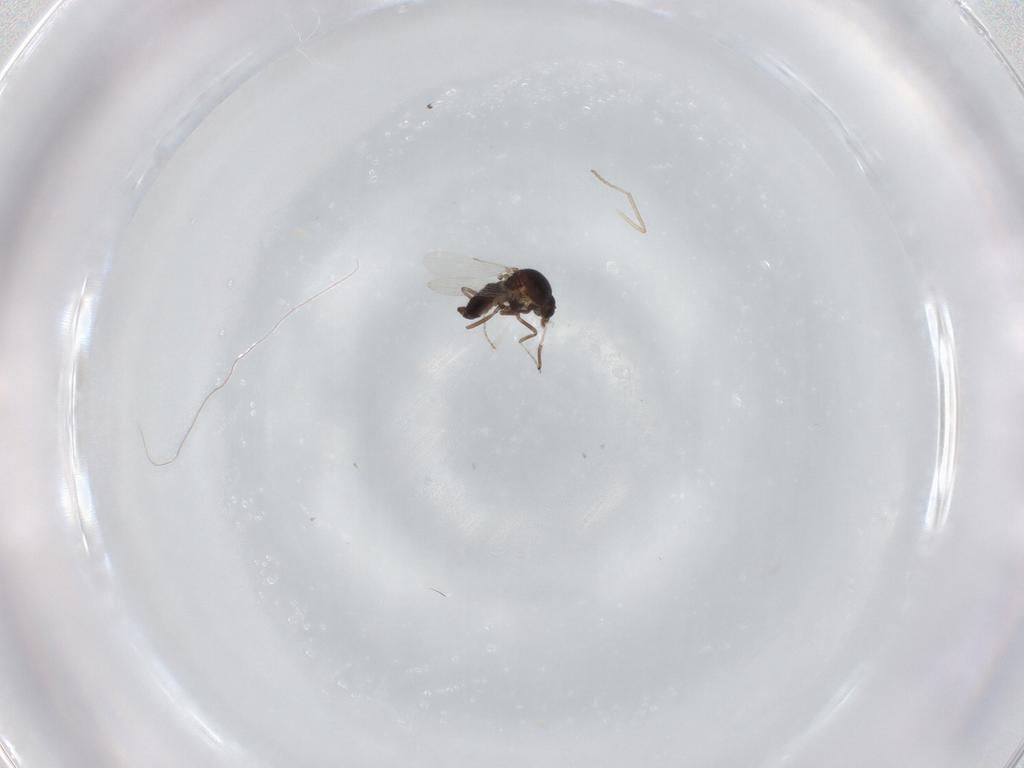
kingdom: Animalia
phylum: Arthropoda
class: Insecta
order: Diptera
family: Ceratopogonidae
